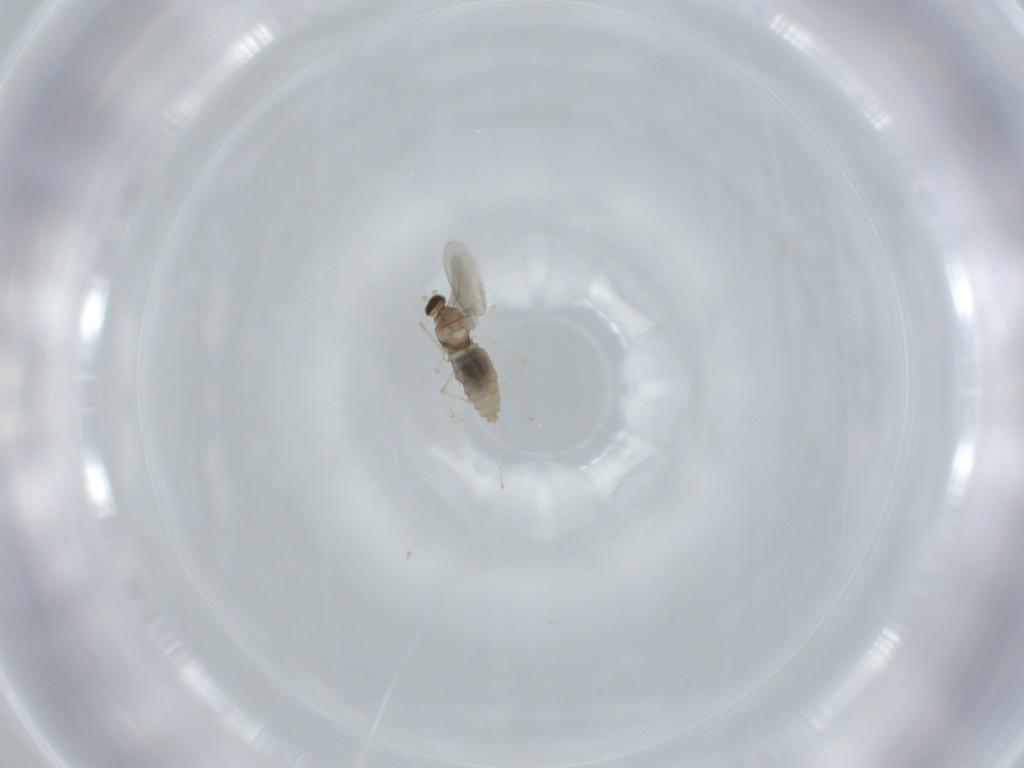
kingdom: Animalia
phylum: Arthropoda
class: Insecta
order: Diptera
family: Cecidomyiidae
